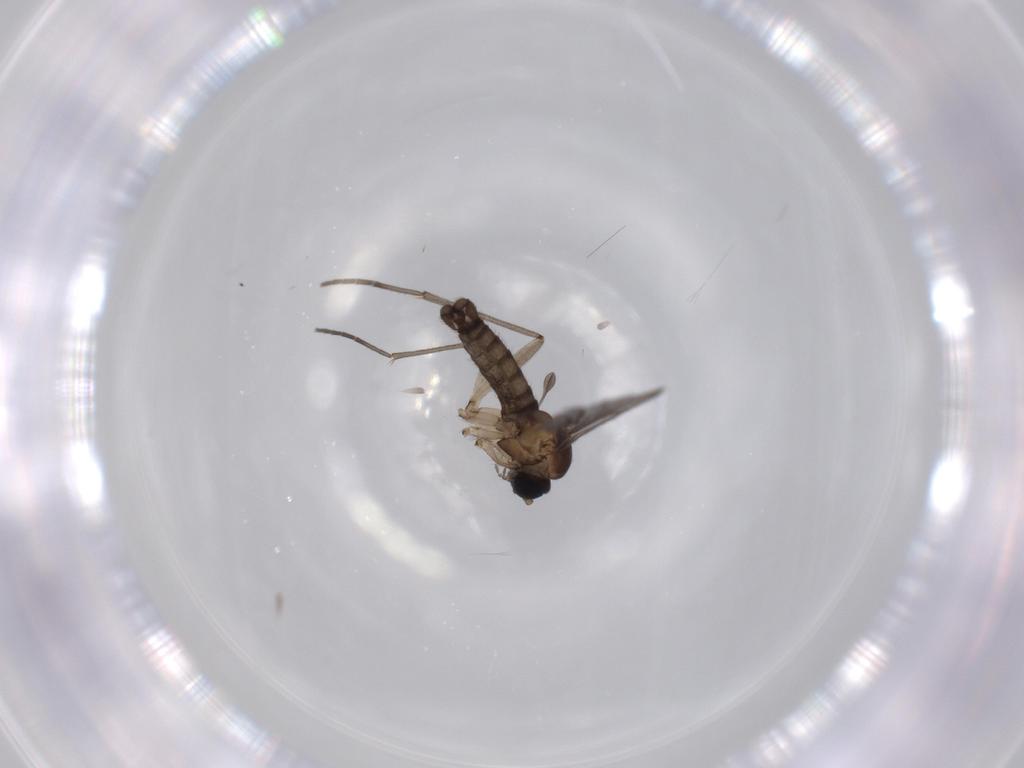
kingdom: Animalia
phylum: Arthropoda
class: Insecta
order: Diptera
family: Sciaridae
